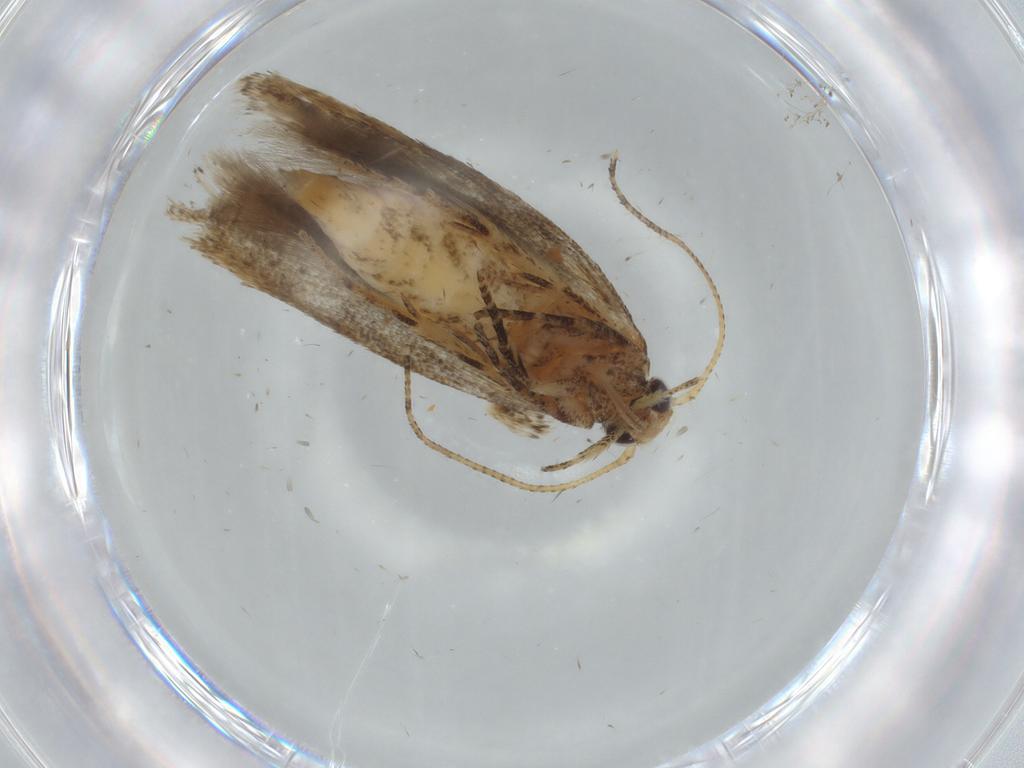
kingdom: Animalia
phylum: Arthropoda
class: Insecta
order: Lepidoptera
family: Gelechiidae
